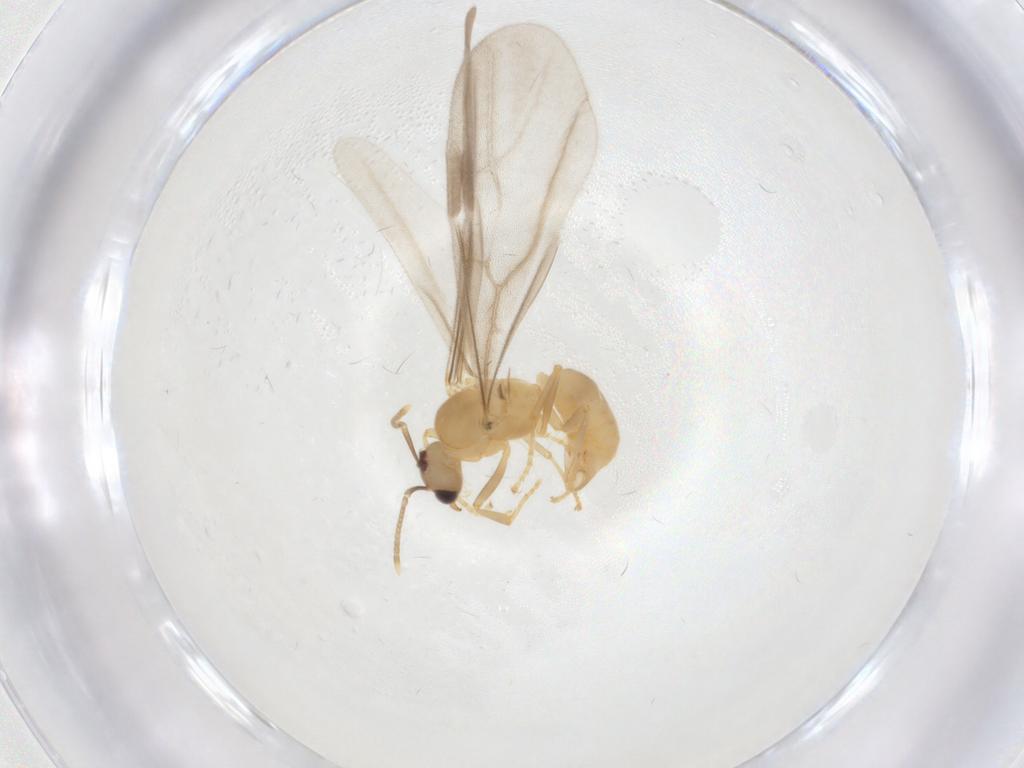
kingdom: Animalia
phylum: Arthropoda
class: Insecta
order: Hymenoptera
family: Formicidae
